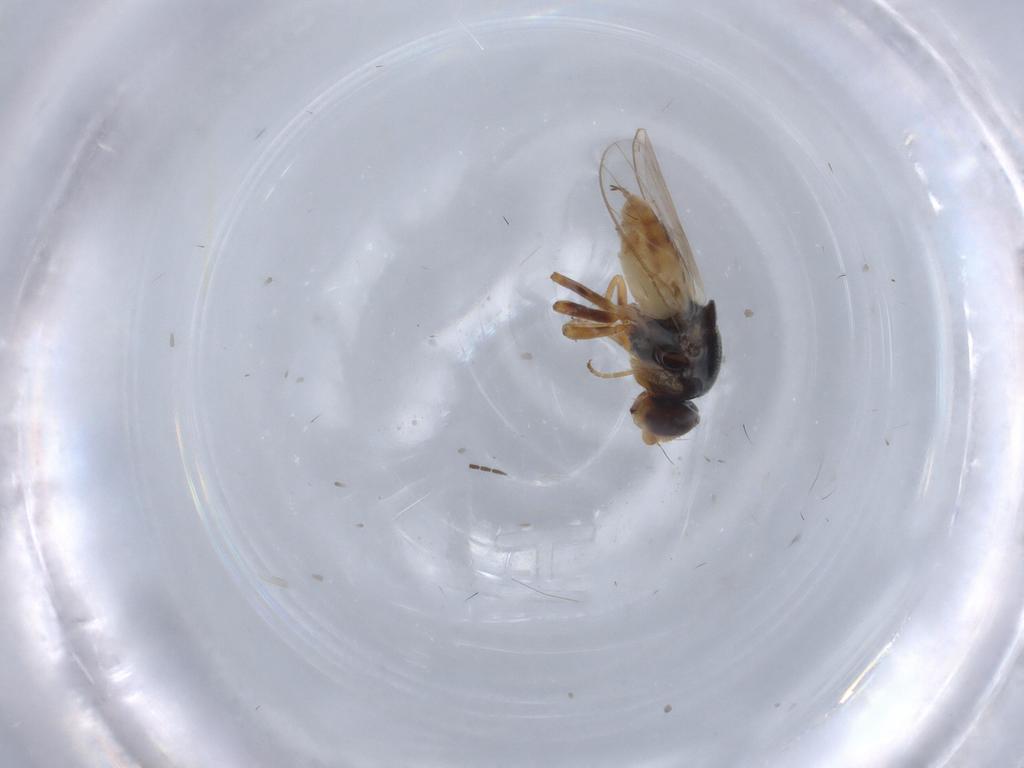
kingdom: Animalia
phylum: Arthropoda
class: Insecta
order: Diptera
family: Chloropidae
